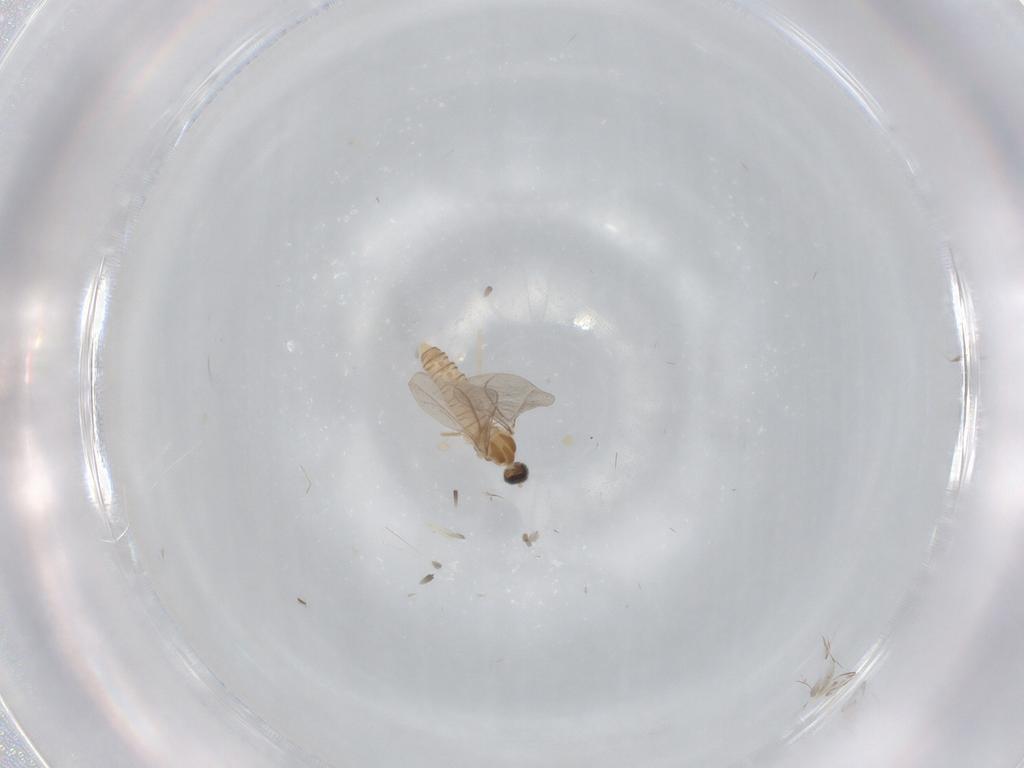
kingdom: Animalia
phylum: Arthropoda
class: Insecta
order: Diptera
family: Cecidomyiidae
